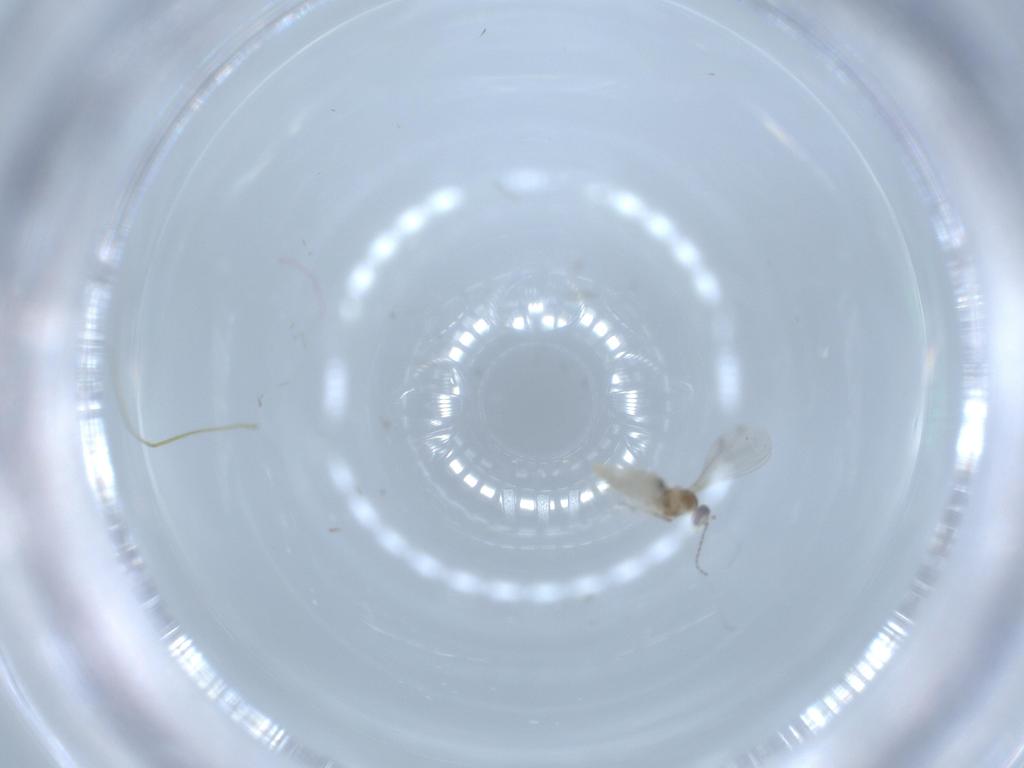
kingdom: Animalia
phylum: Arthropoda
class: Insecta
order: Diptera
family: Cecidomyiidae
